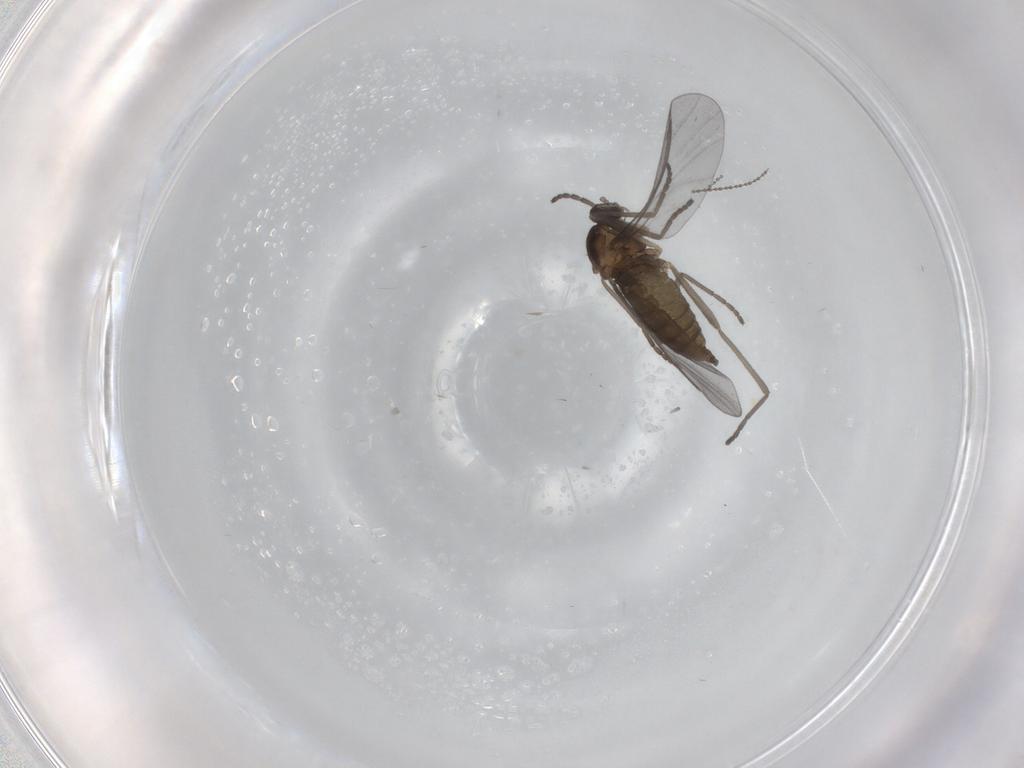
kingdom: Animalia
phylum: Arthropoda
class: Insecta
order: Diptera
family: Cecidomyiidae
